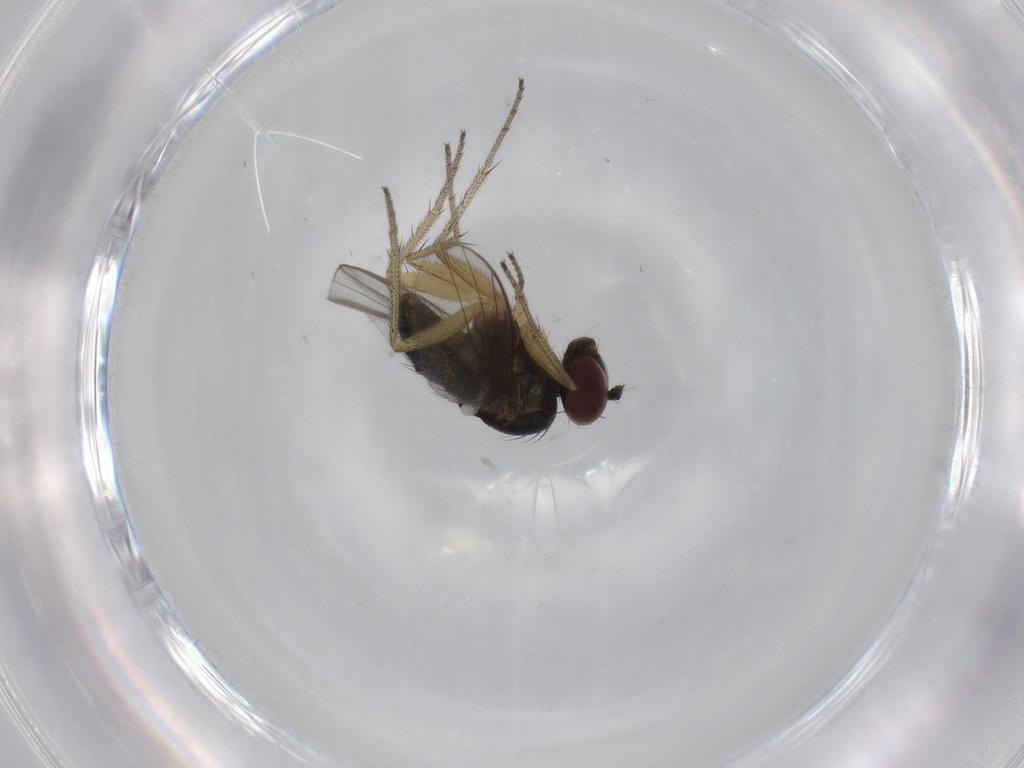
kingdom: Animalia
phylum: Arthropoda
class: Insecta
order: Diptera
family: Dolichopodidae
